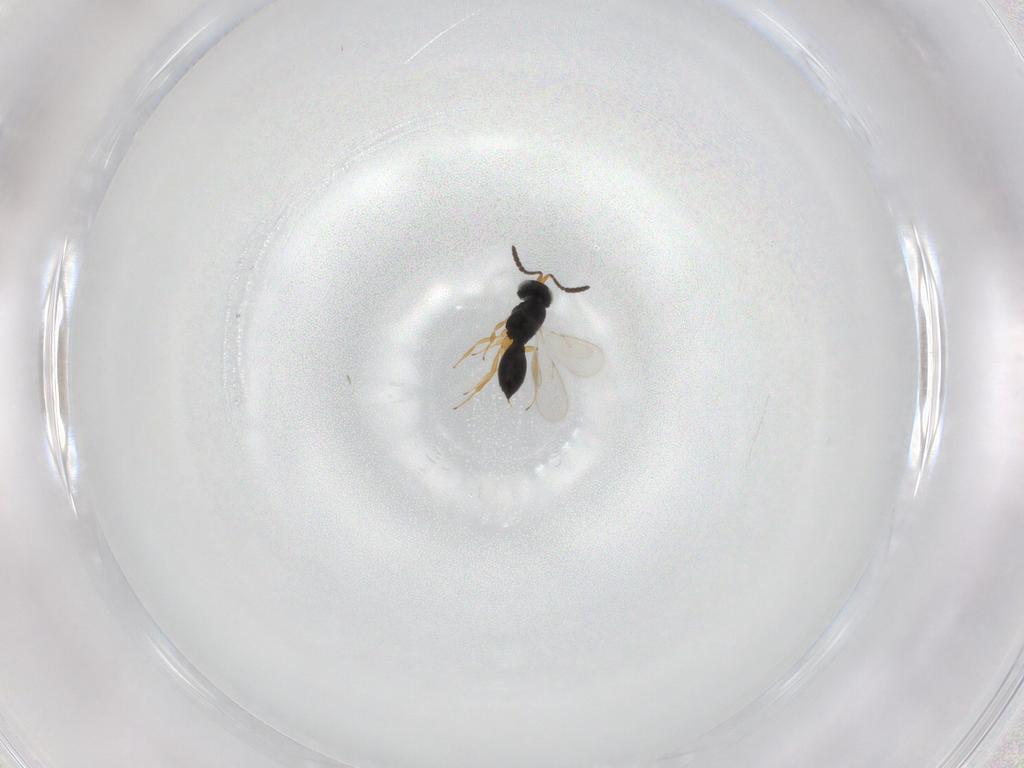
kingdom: Animalia
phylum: Arthropoda
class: Insecta
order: Hymenoptera
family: Scelionidae
